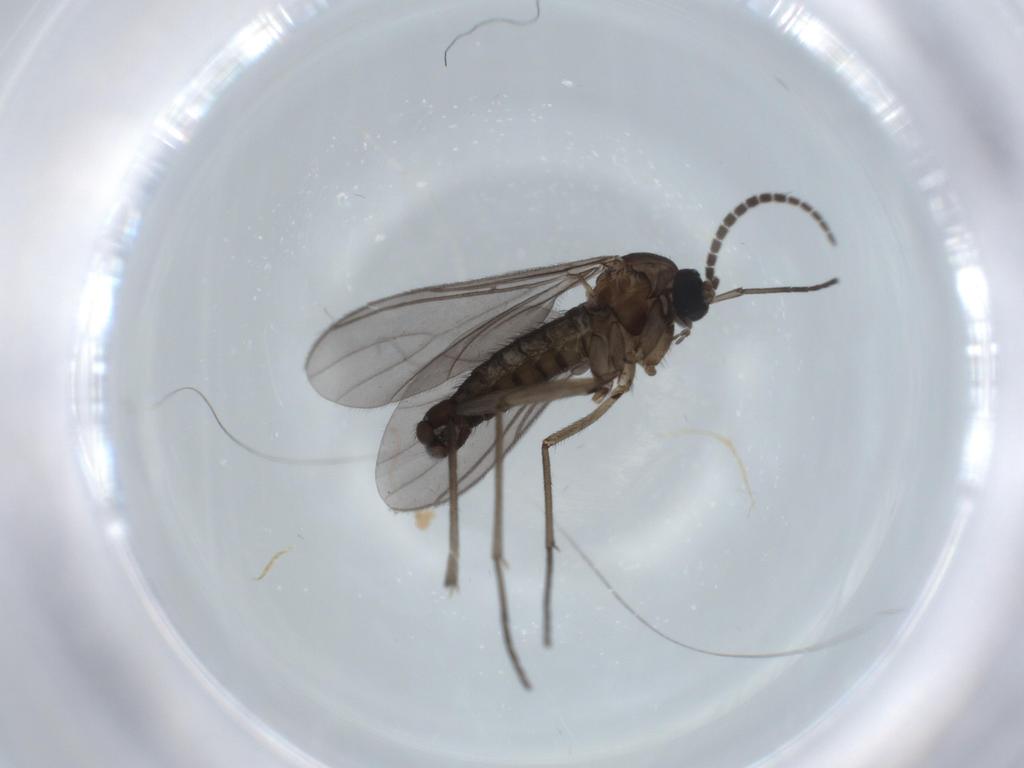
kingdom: Animalia
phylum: Arthropoda
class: Insecta
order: Diptera
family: Sciaridae
